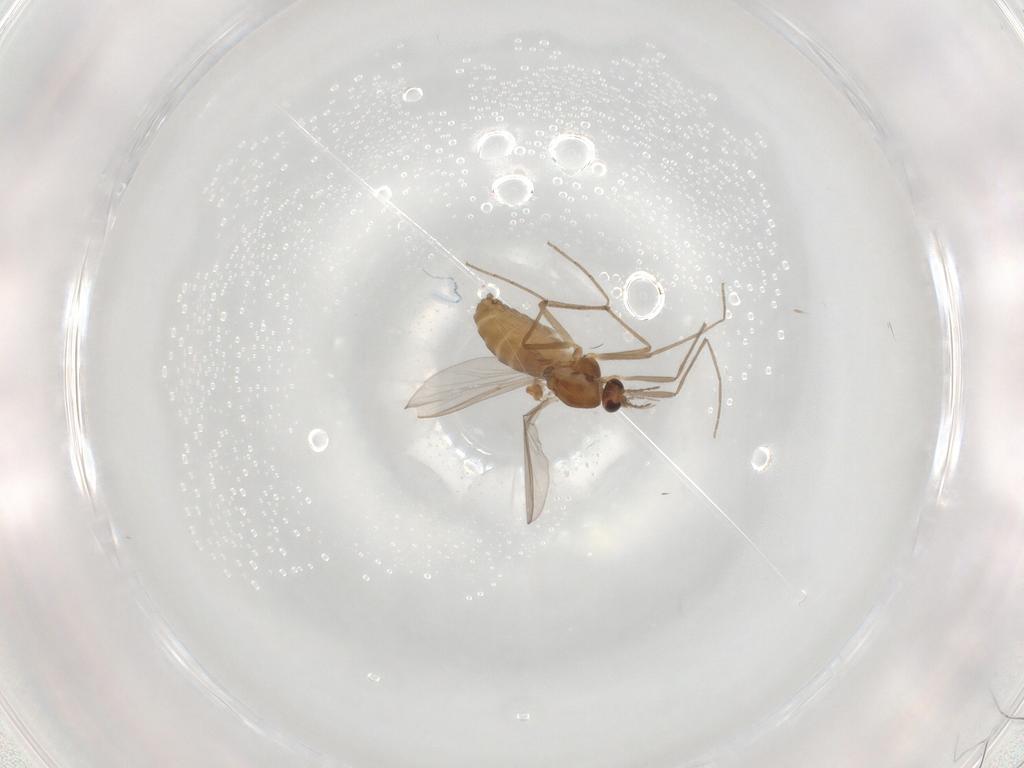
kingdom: Animalia
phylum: Arthropoda
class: Insecta
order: Diptera
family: Chironomidae
